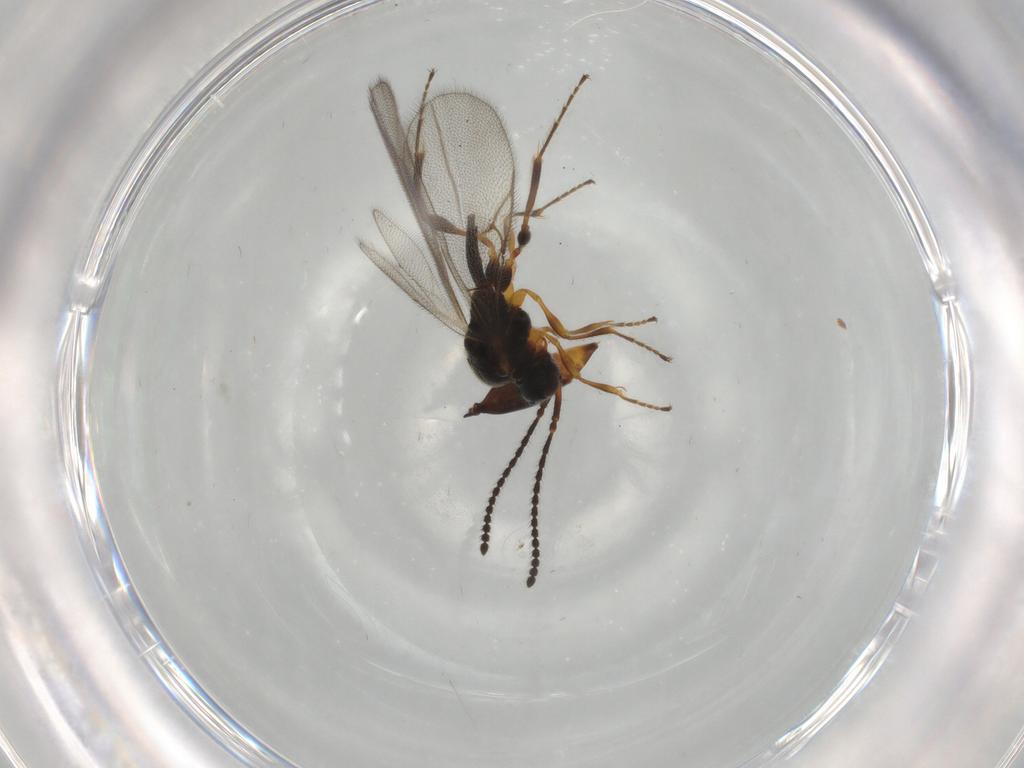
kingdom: Animalia
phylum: Arthropoda
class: Insecta
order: Hymenoptera
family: Diapriidae
